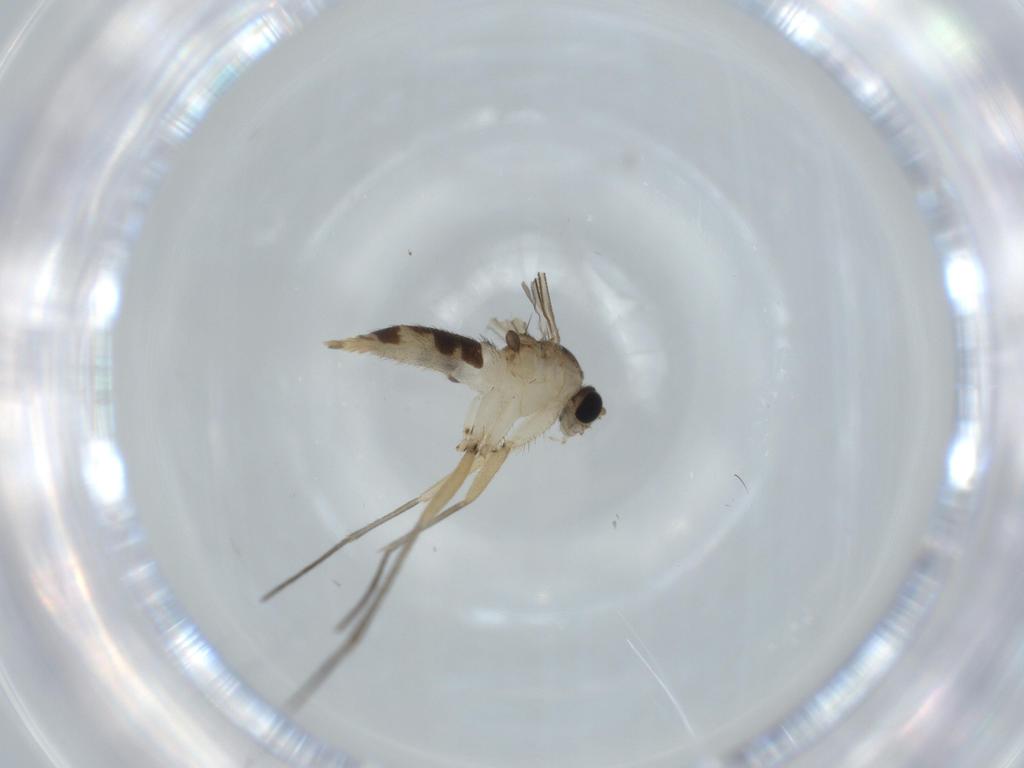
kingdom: Animalia
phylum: Arthropoda
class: Insecta
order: Diptera
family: Sciaridae
